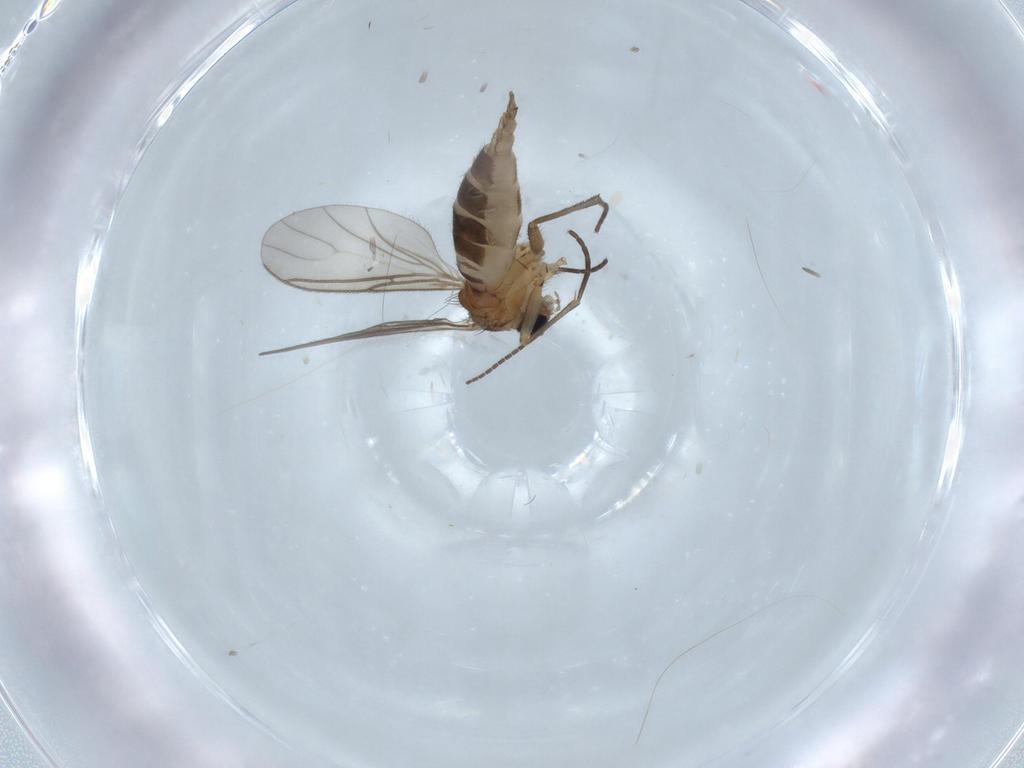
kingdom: Animalia
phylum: Arthropoda
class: Insecta
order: Diptera
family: Sciaridae
